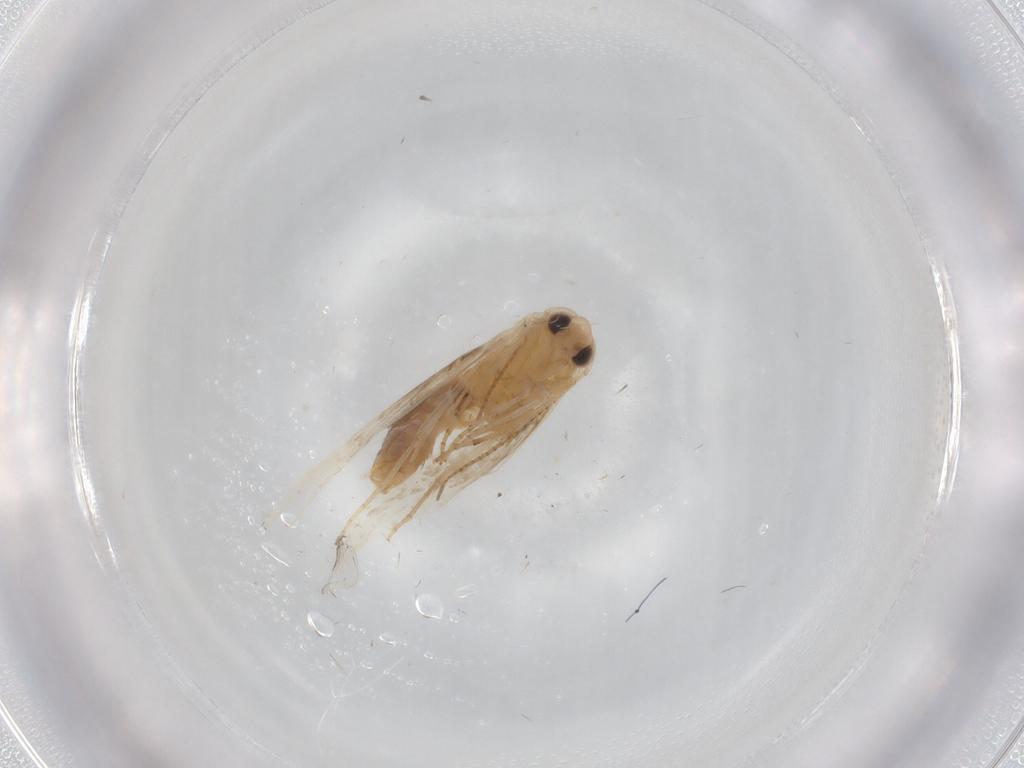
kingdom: Animalia
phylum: Arthropoda
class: Insecta
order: Lepidoptera
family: Bucculatricidae
